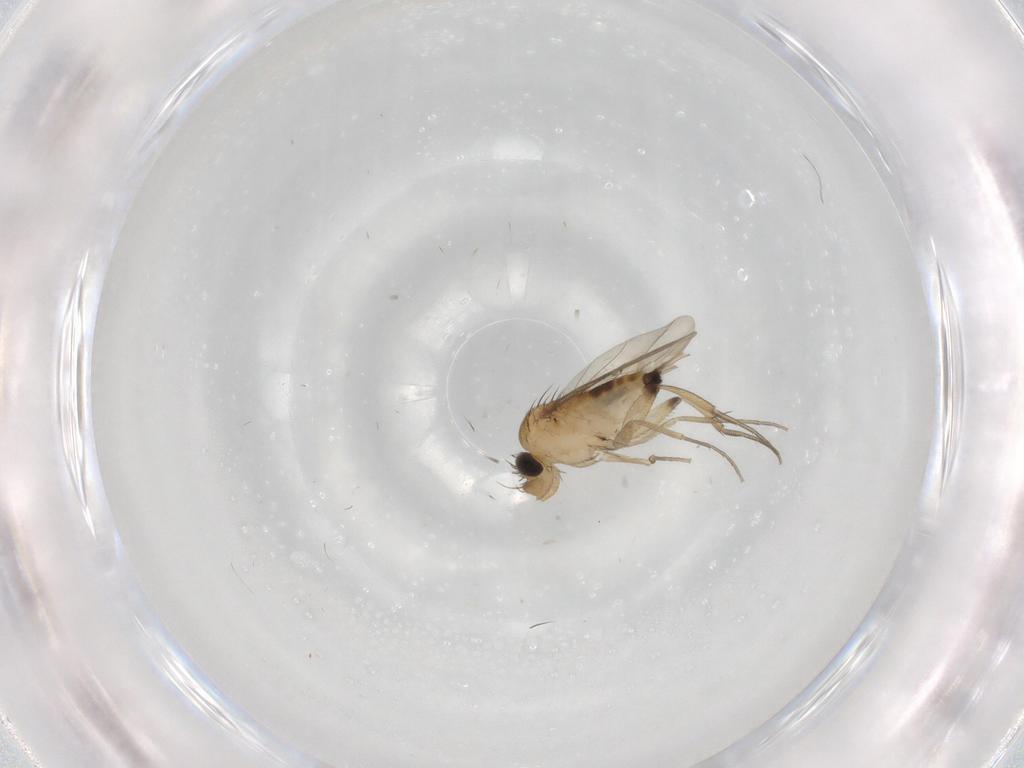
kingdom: Animalia
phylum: Arthropoda
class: Insecta
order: Diptera
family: Phoridae
